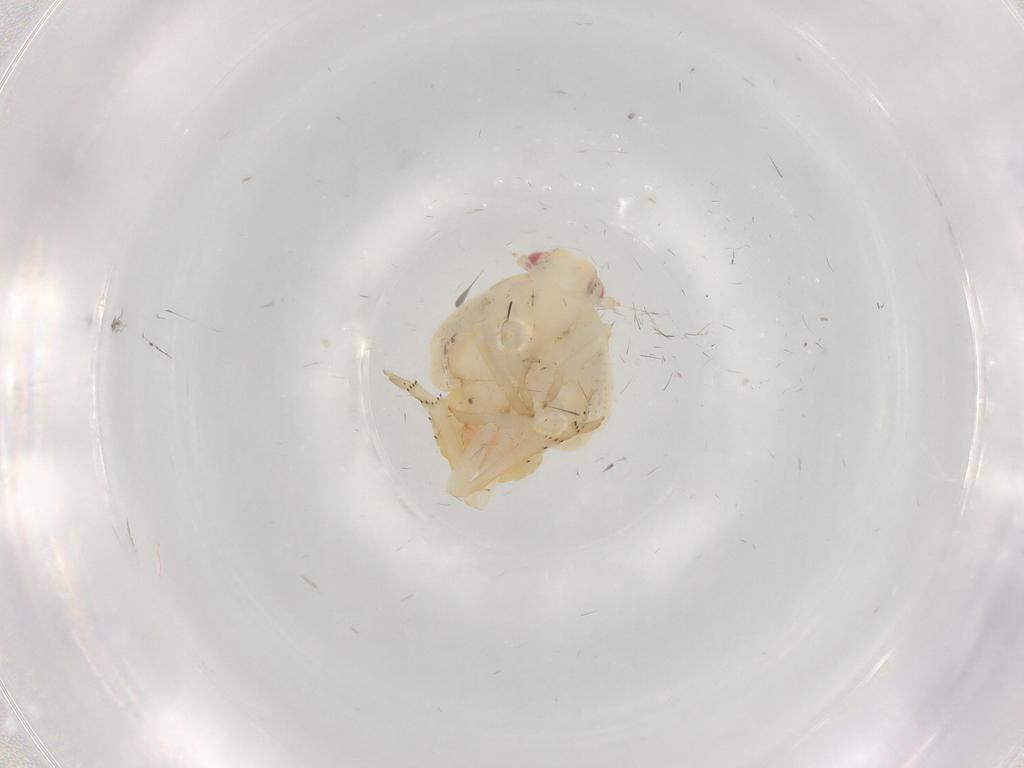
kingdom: Animalia
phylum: Arthropoda
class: Insecta
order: Hemiptera
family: Flatidae
